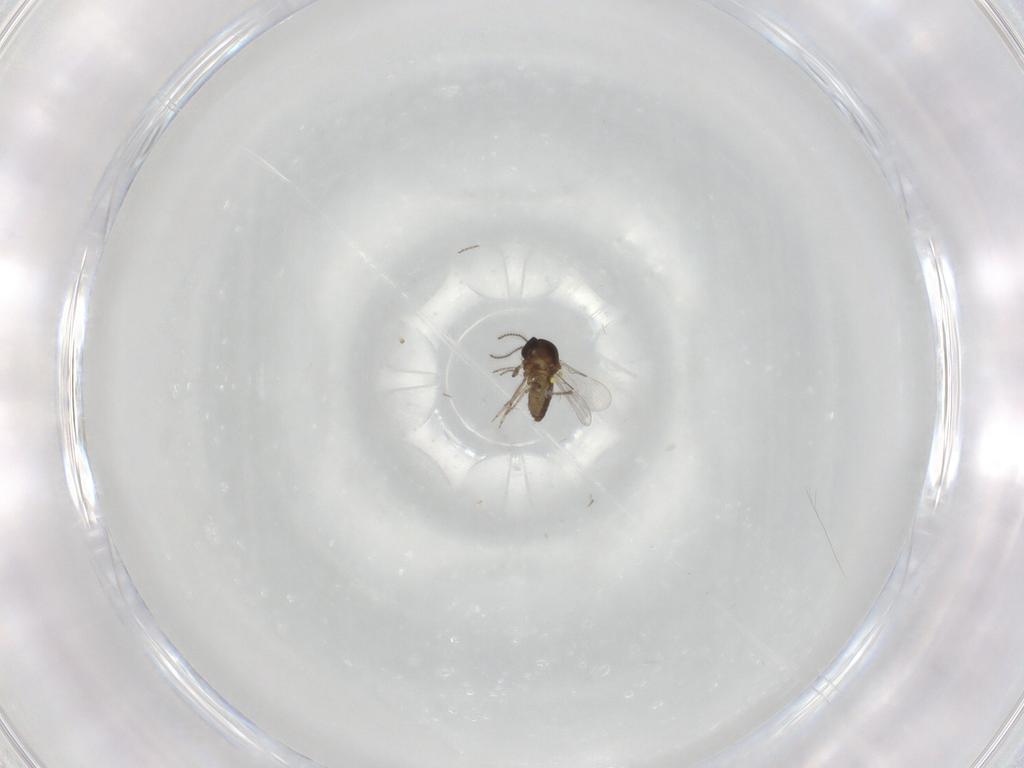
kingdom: Animalia
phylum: Arthropoda
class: Insecta
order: Diptera
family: Ceratopogonidae
